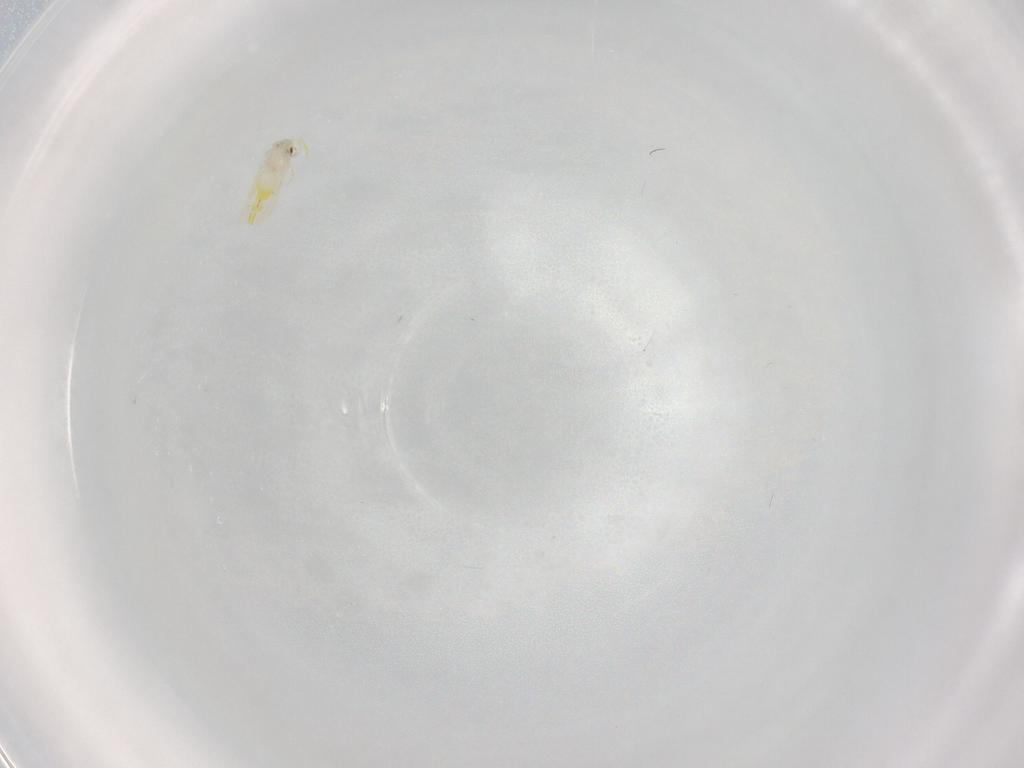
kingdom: Animalia
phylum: Arthropoda
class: Insecta
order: Hemiptera
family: Aleyrodidae
